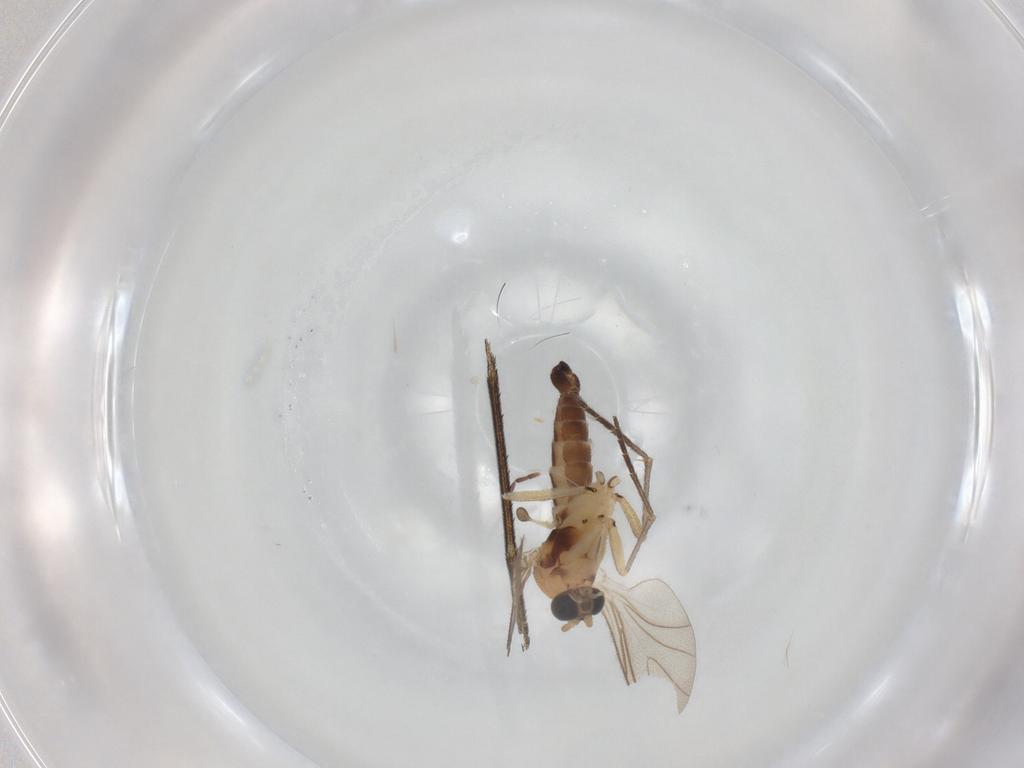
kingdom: Animalia
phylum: Arthropoda
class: Insecta
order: Diptera
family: Keroplatidae
